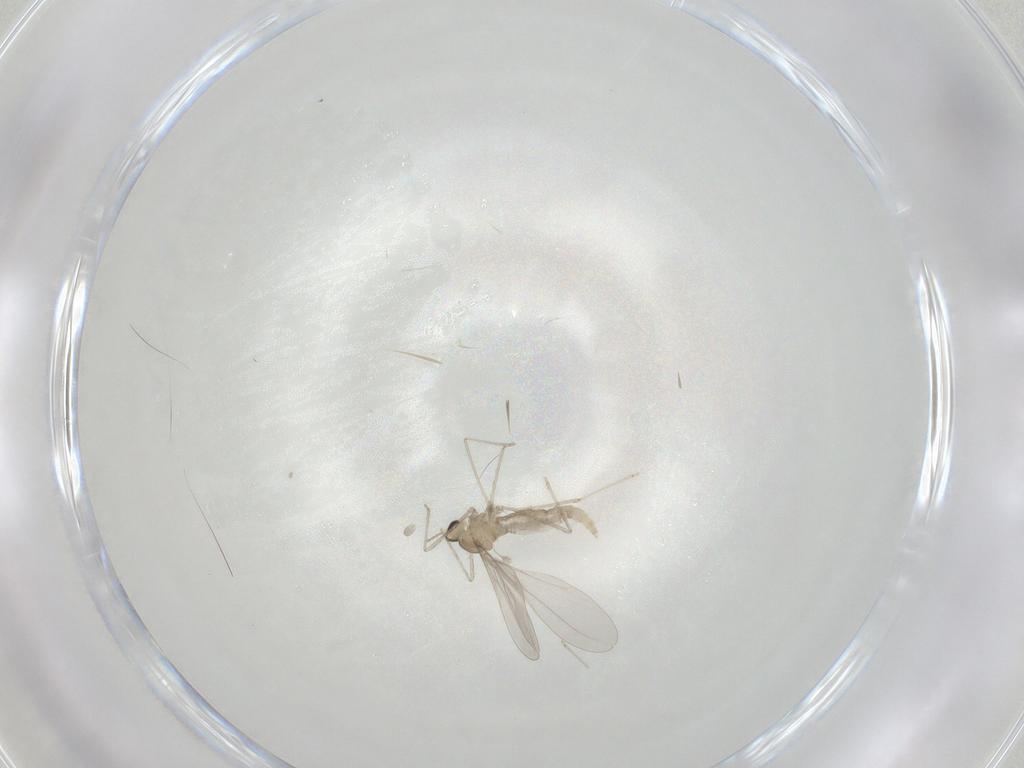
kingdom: Animalia
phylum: Arthropoda
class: Insecta
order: Diptera
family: Cecidomyiidae
